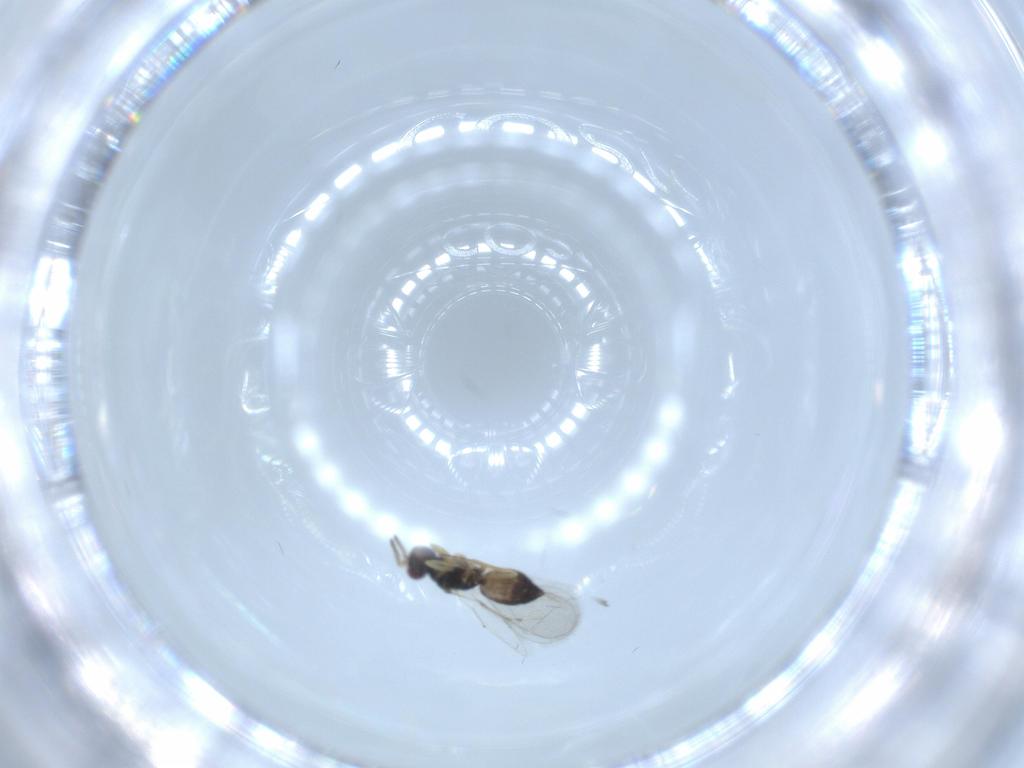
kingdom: Animalia
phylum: Arthropoda
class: Insecta
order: Hymenoptera
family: Eulophidae
